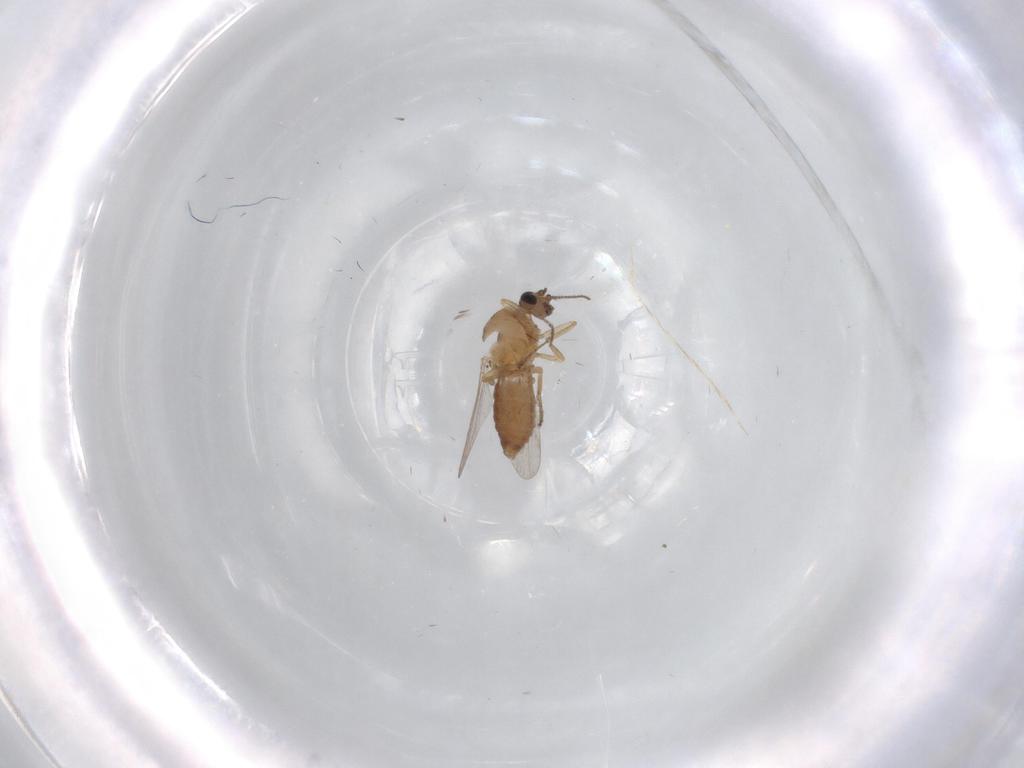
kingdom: Animalia
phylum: Arthropoda
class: Insecta
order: Diptera
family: Ceratopogonidae
